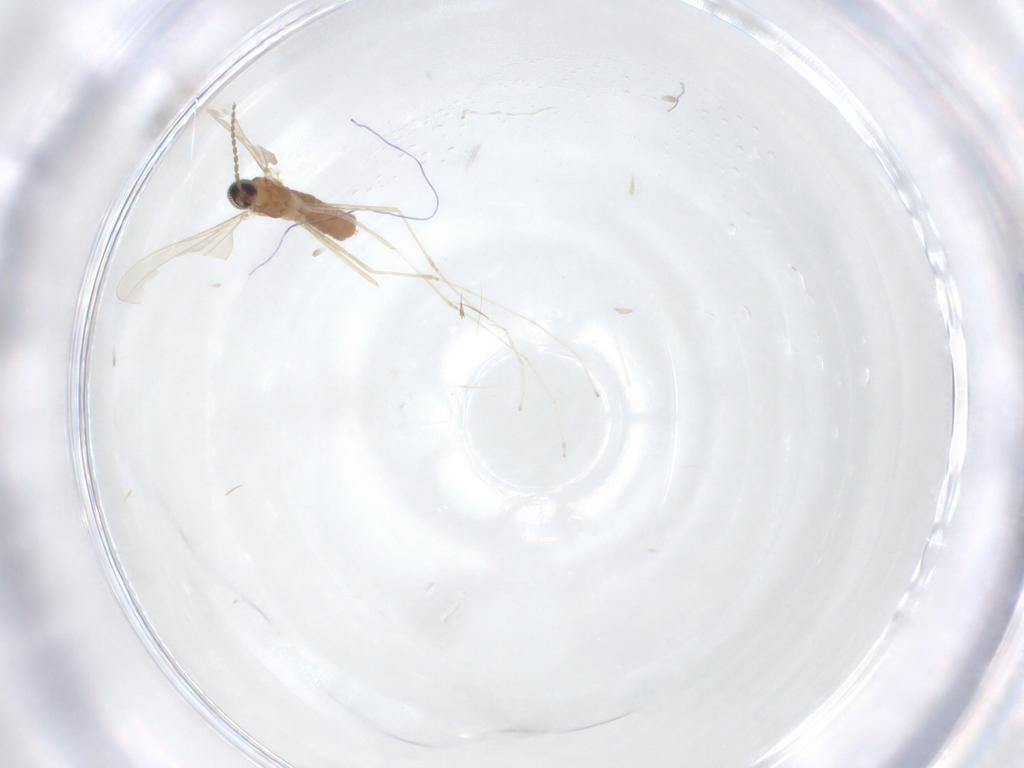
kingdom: Animalia
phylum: Arthropoda
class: Insecta
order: Diptera
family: Cecidomyiidae
